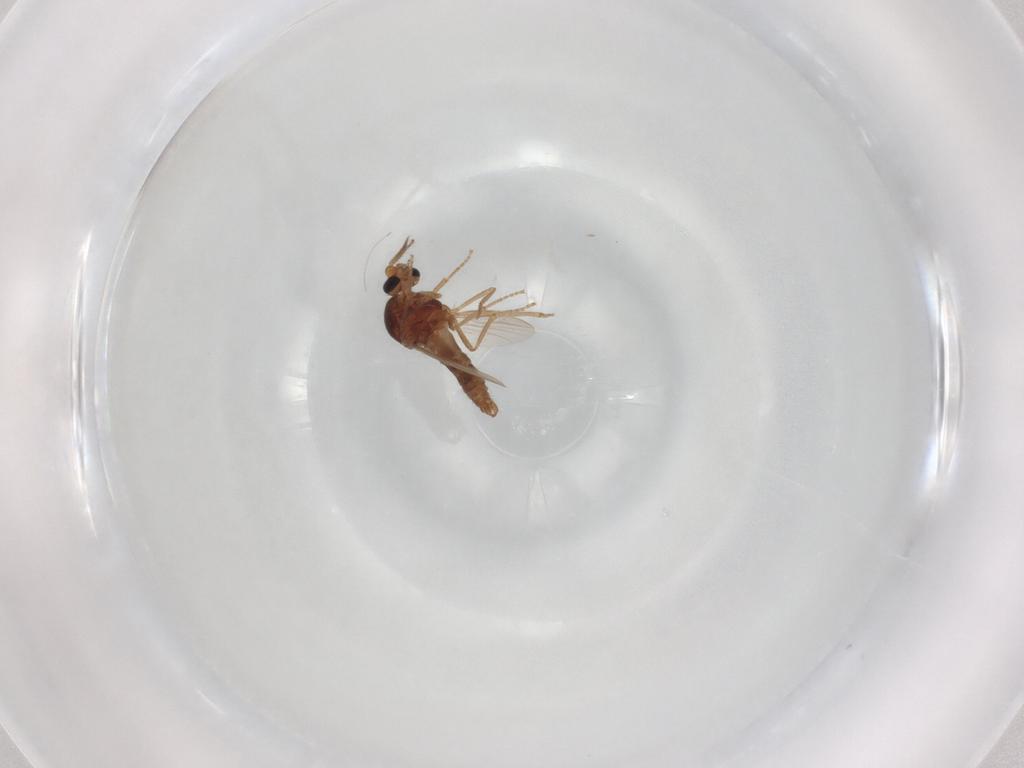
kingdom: Animalia
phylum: Arthropoda
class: Insecta
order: Diptera
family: Ceratopogonidae
